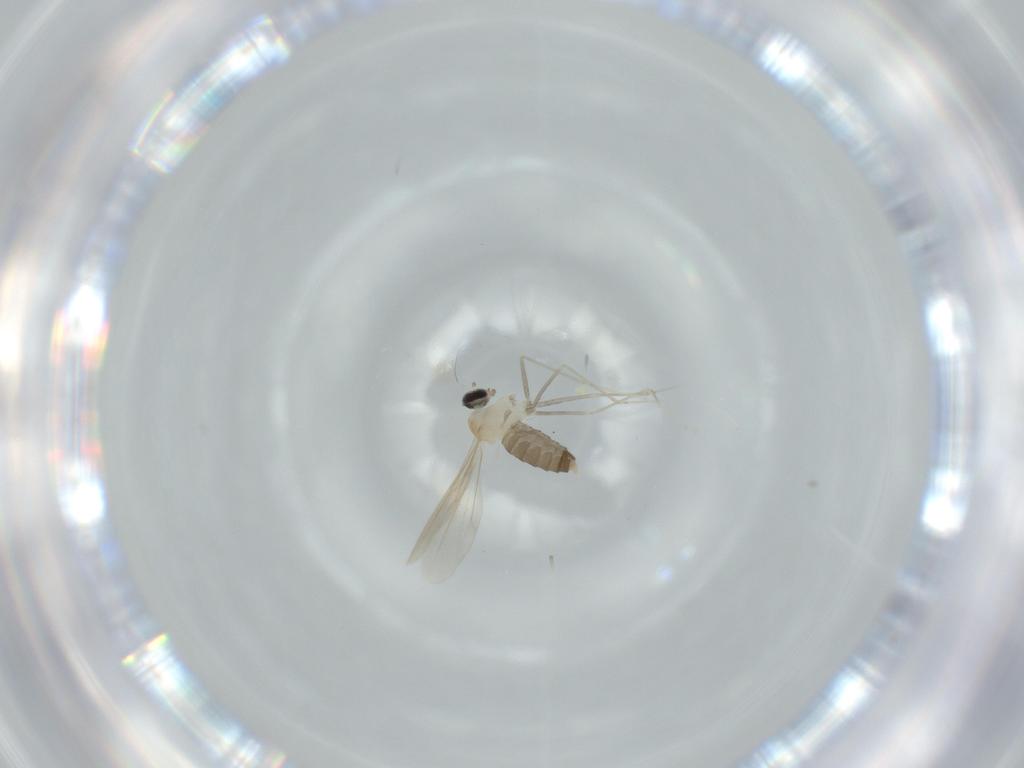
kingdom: Animalia
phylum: Arthropoda
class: Insecta
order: Diptera
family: Cecidomyiidae
